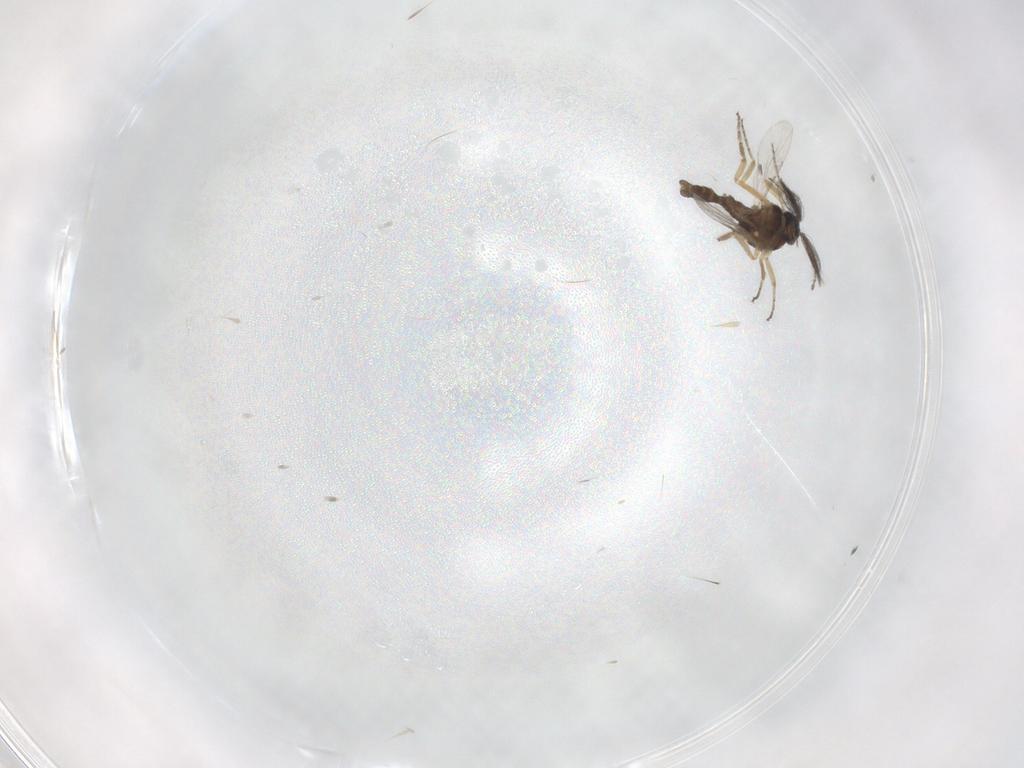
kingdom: Animalia
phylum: Arthropoda
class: Insecta
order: Diptera
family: Ceratopogonidae
